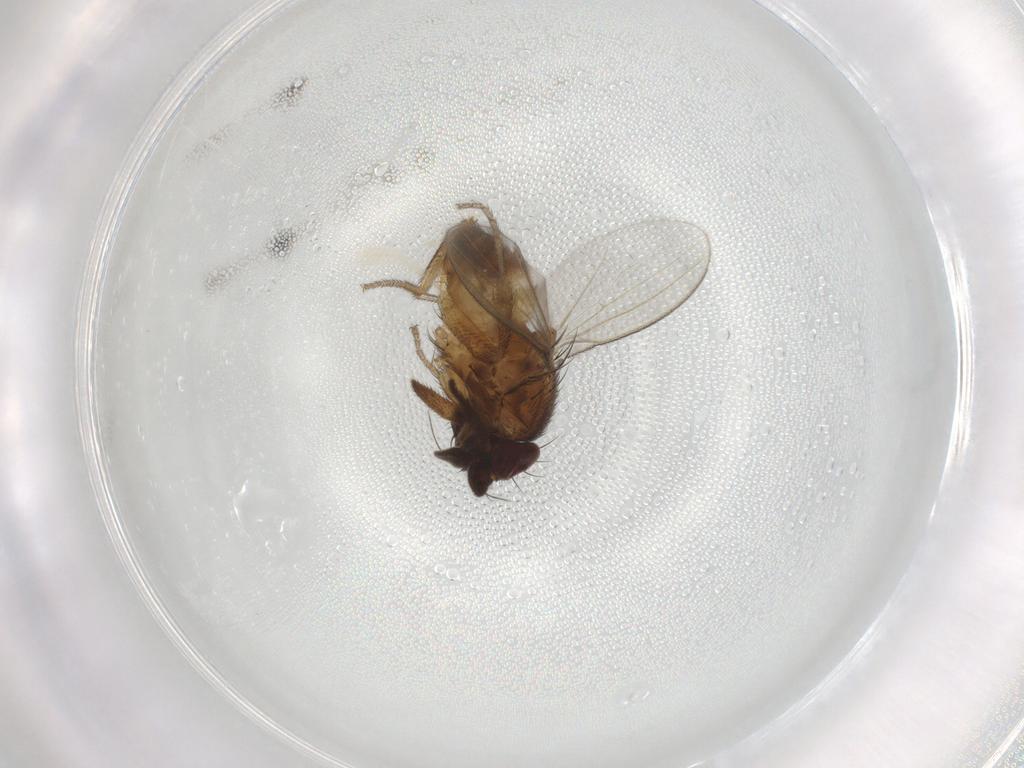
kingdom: Animalia
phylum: Arthropoda
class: Insecta
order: Diptera
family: Milichiidae
